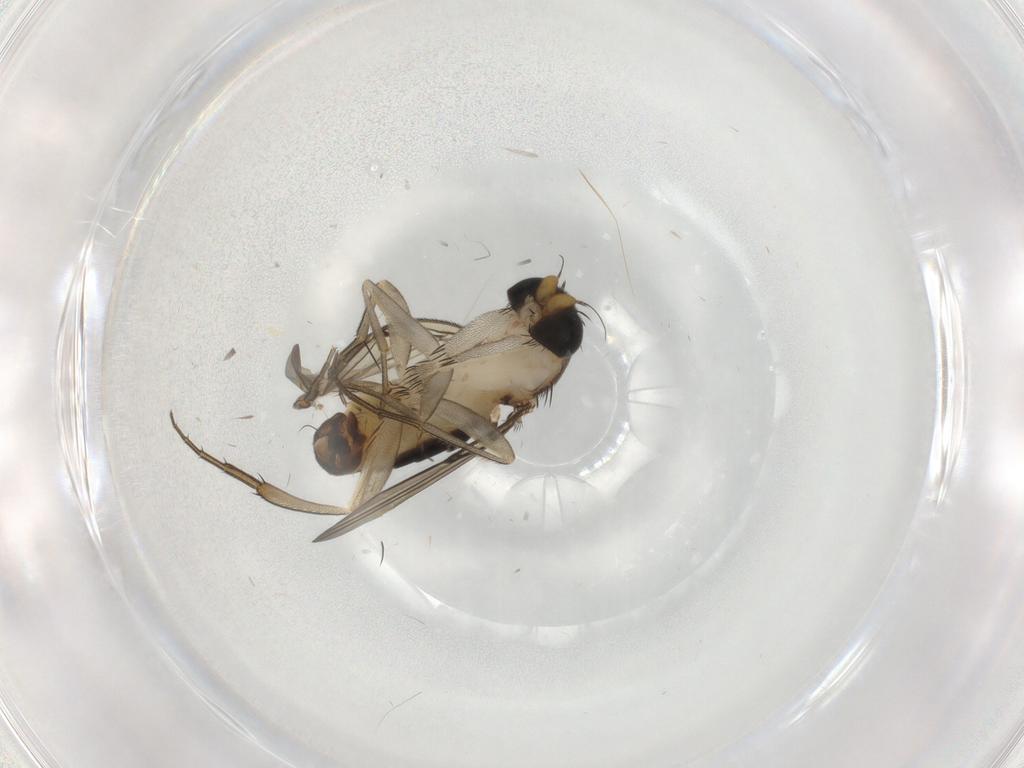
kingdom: Animalia
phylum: Arthropoda
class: Insecta
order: Diptera
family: Phoridae
